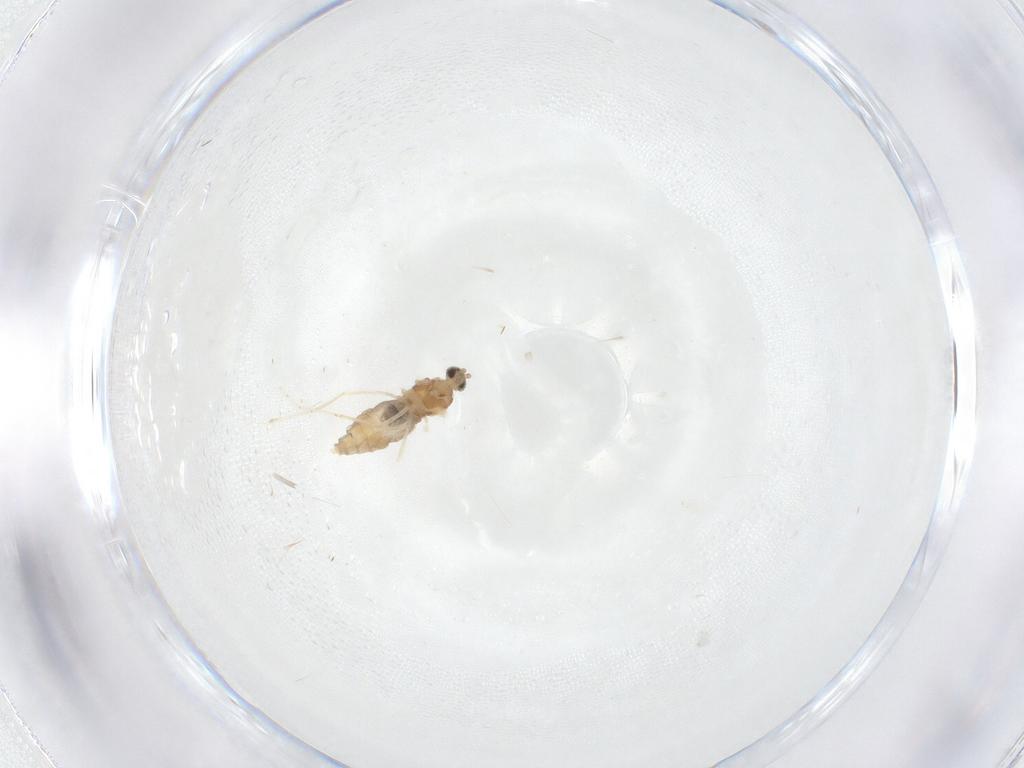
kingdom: Animalia
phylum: Arthropoda
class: Insecta
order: Diptera
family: Cecidomyiidae
